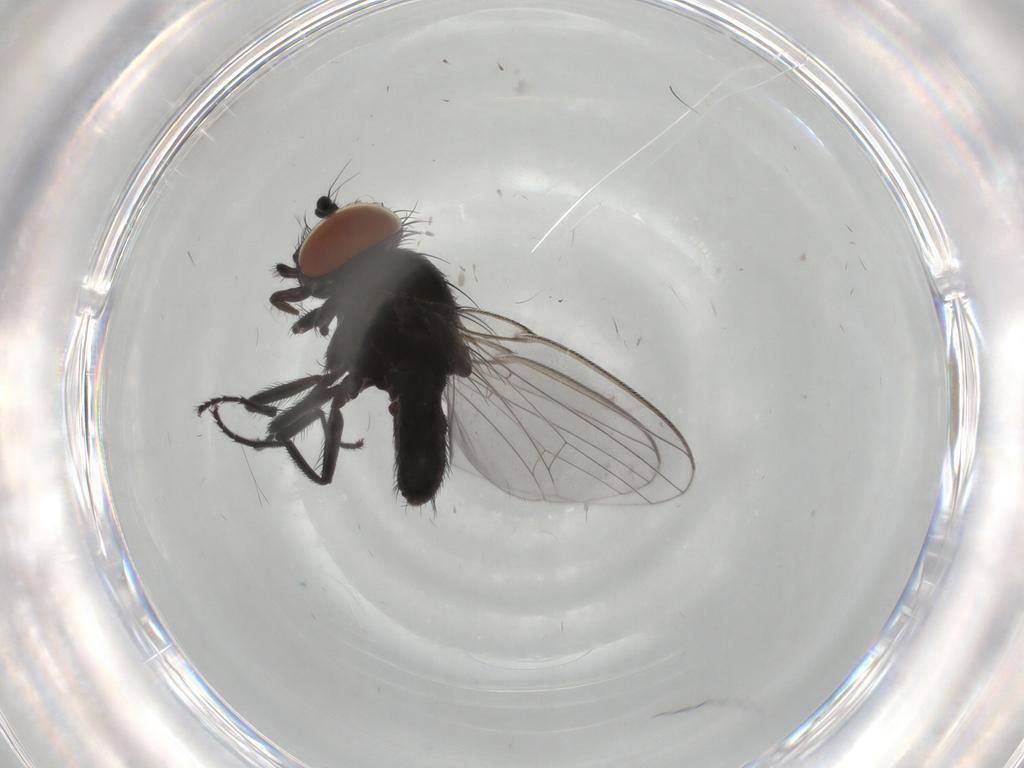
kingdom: Animalia
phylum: Arthropoda
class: Insecta
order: Diptera
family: Milichiidae
